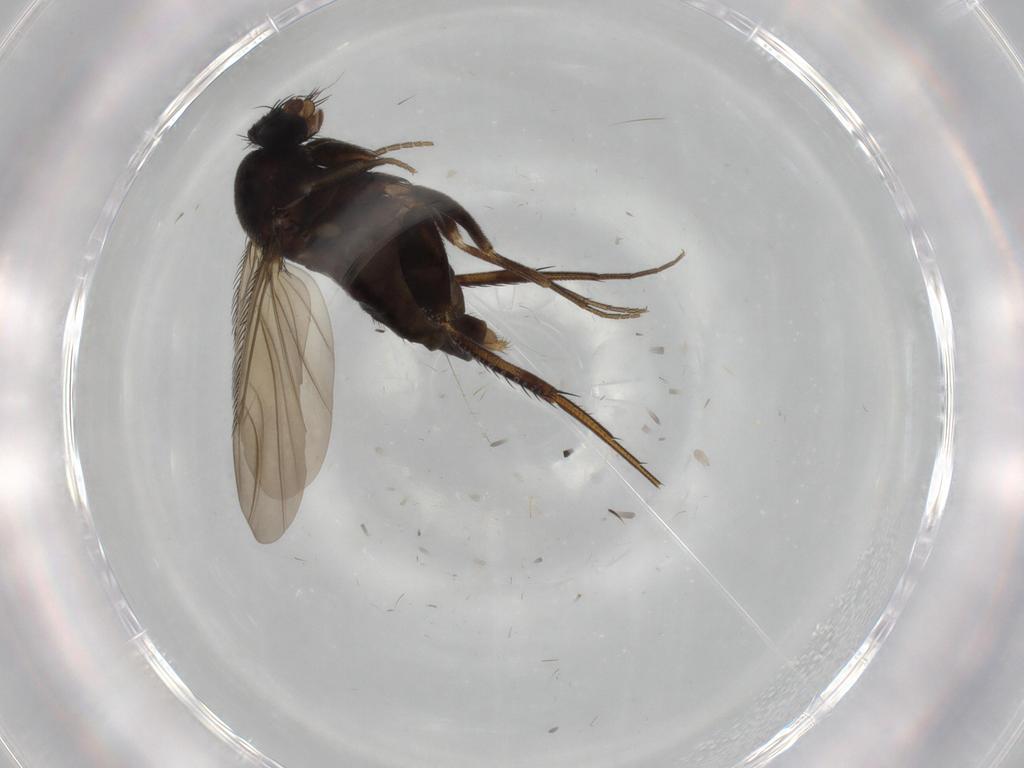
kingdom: Animalia
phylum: Arthropoda
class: Insecta
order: Diptera
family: Phoridae
